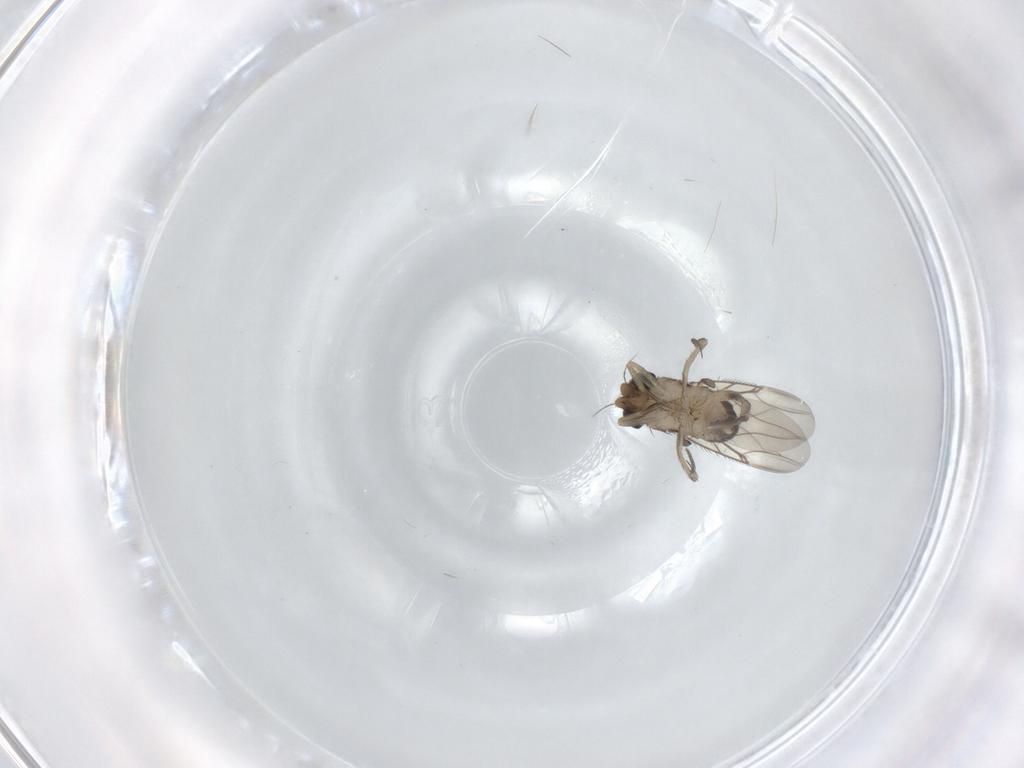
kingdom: Animalia
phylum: Arthropoda
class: Insecta
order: Diptera
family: Phoridae
